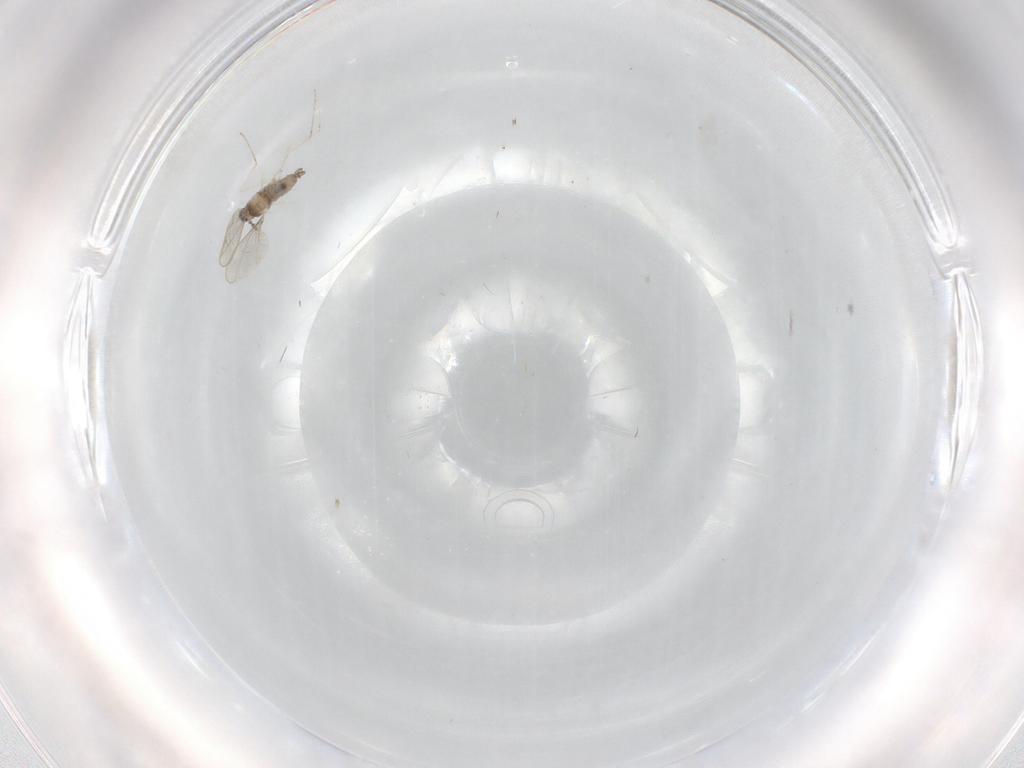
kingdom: Animalia
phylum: Arthropoda
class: Insecta
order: Diptera
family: Cecidomyiidae
